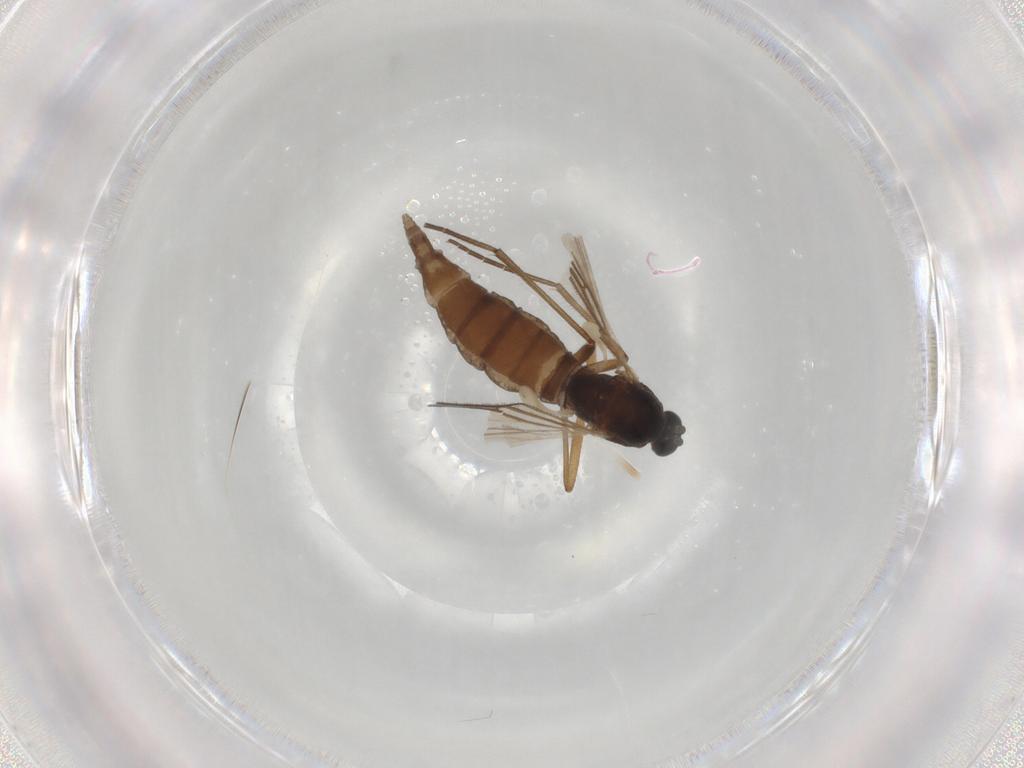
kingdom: Animalia
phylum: Arthropoda
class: Insecta
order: Diptera
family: Sciaridae
